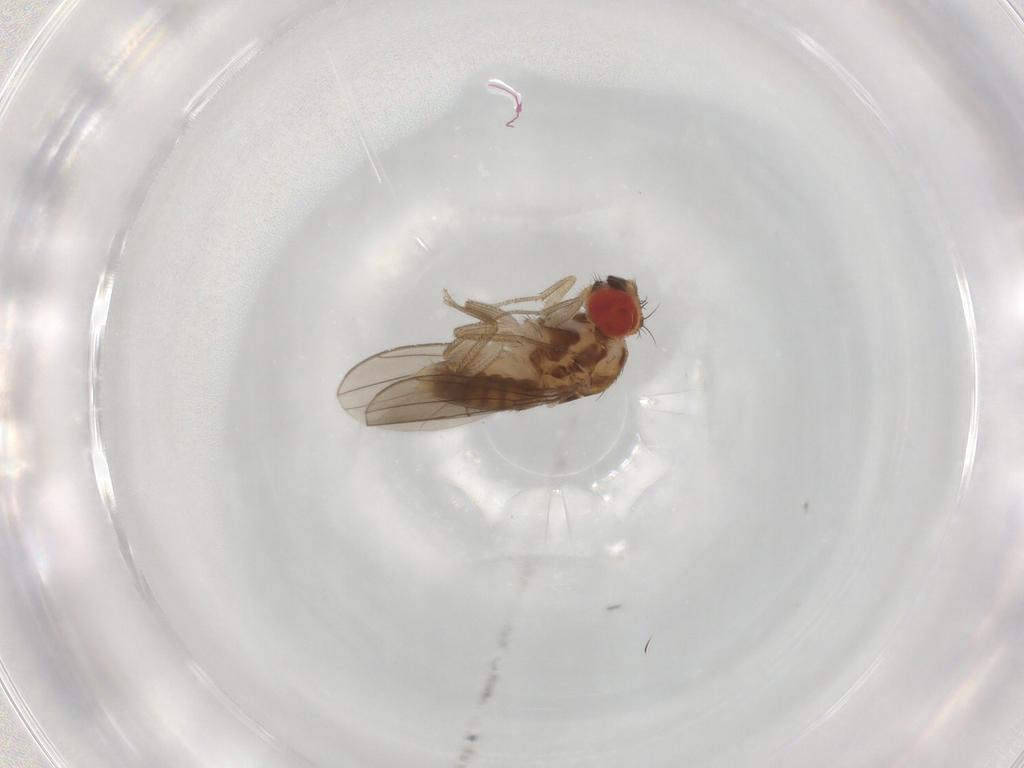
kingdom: Animalia
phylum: Arthropoda
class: Insecta
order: Diptera
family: Drosophilidae
